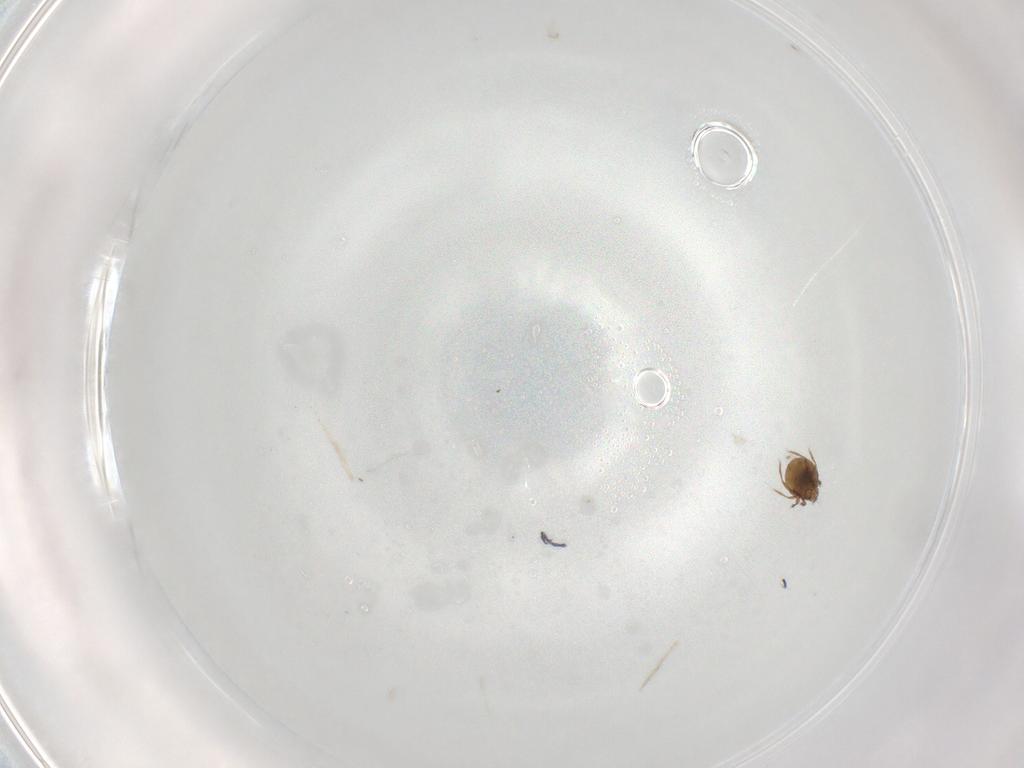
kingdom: Animalia
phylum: Arthropoda
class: Arachnida
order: Sarcoptiformes
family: Oribatulidae
